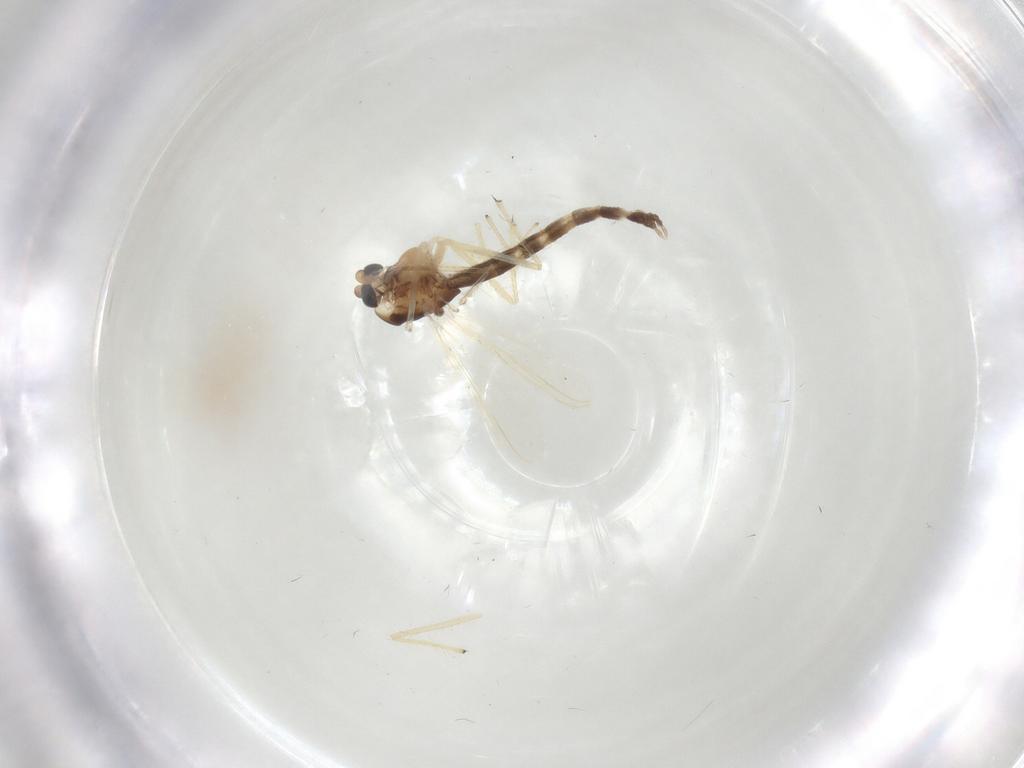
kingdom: Animalia
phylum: Arthropoda
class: Insecta
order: Diptera
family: Chironomidae
